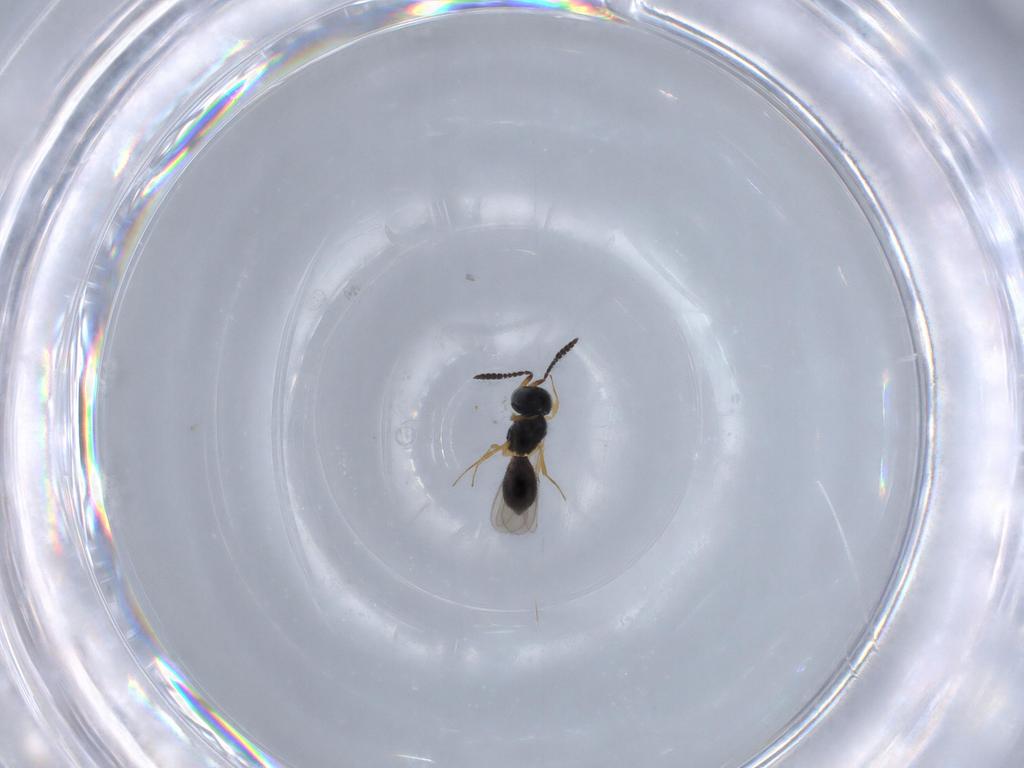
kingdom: Animalia
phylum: Arthropoda
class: Insecta
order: Hymenoptera
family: Scelionidae
